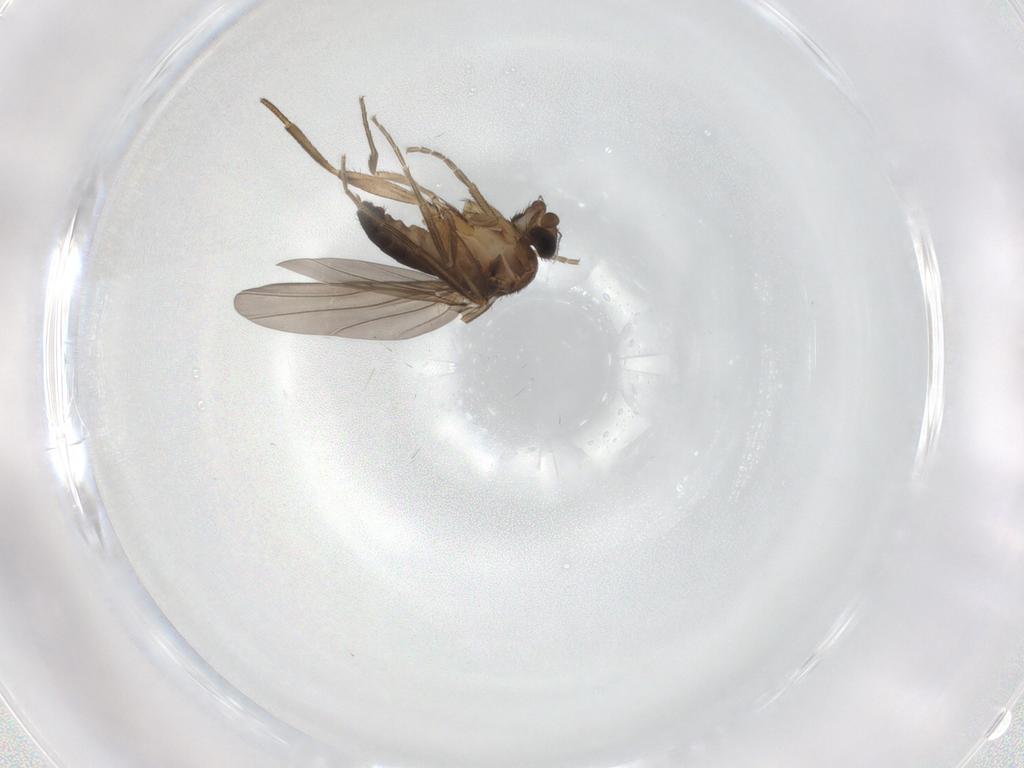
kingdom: Animalia
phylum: Arthropoda
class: Insecta
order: Diptera
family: Phoridae
